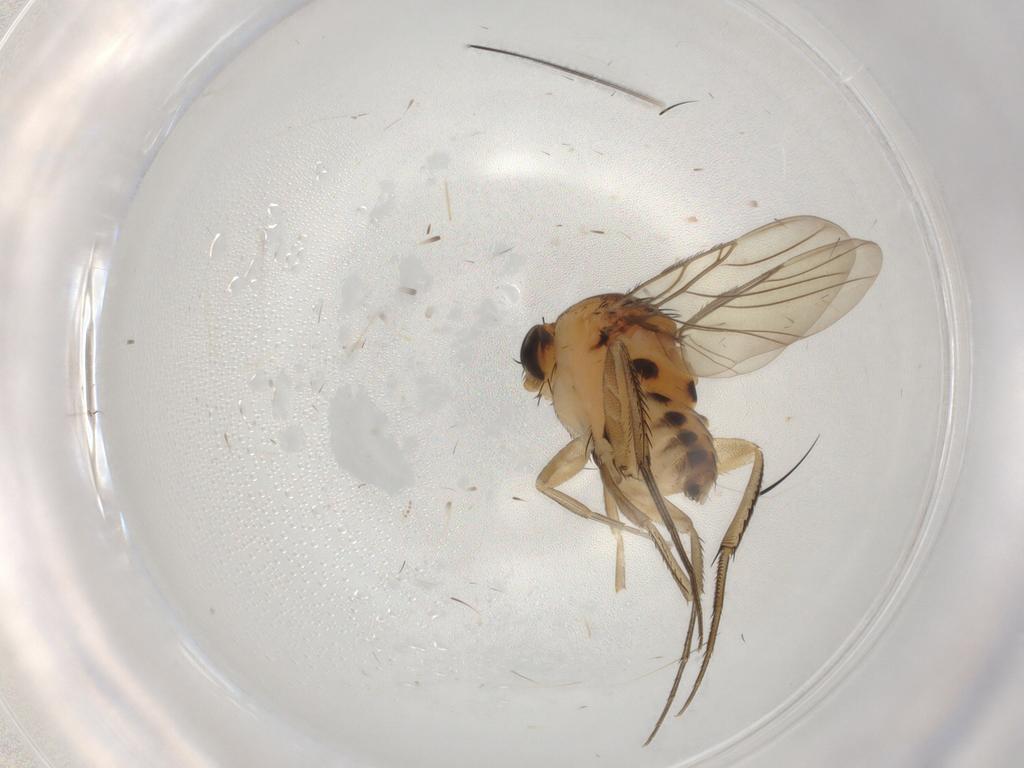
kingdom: Animalia
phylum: Arthropoda
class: Insecta
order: Diptera
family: Phoridae
